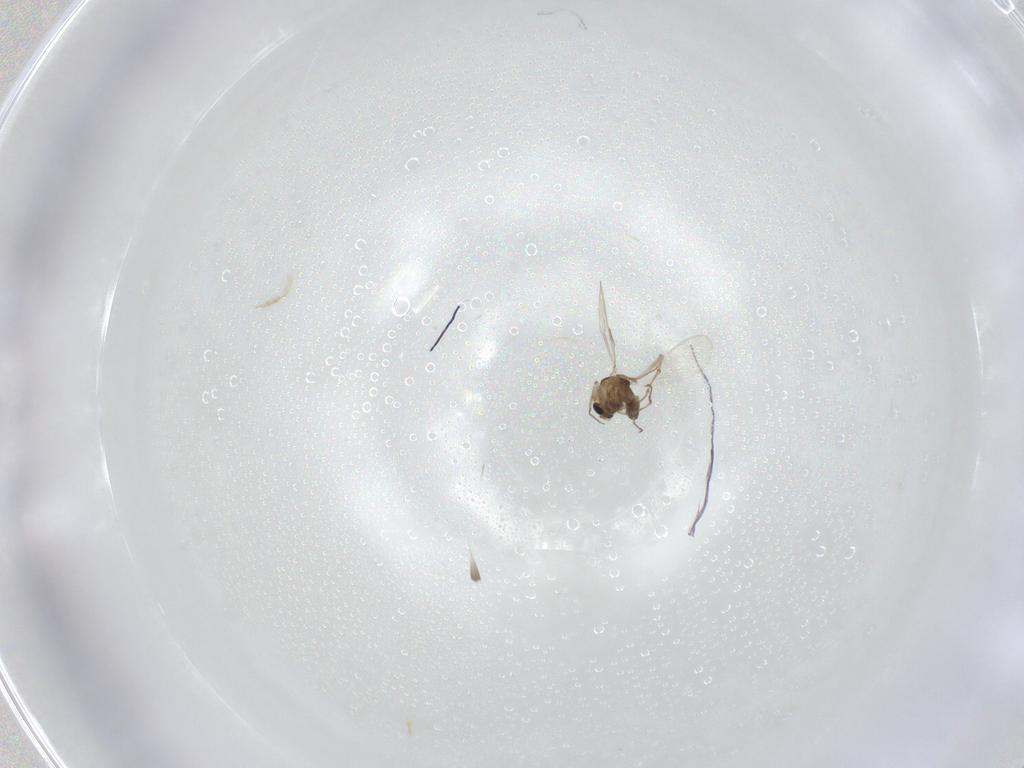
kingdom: Animalia
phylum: Arthropoda
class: Insecta
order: Diptera
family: Chironomidae
